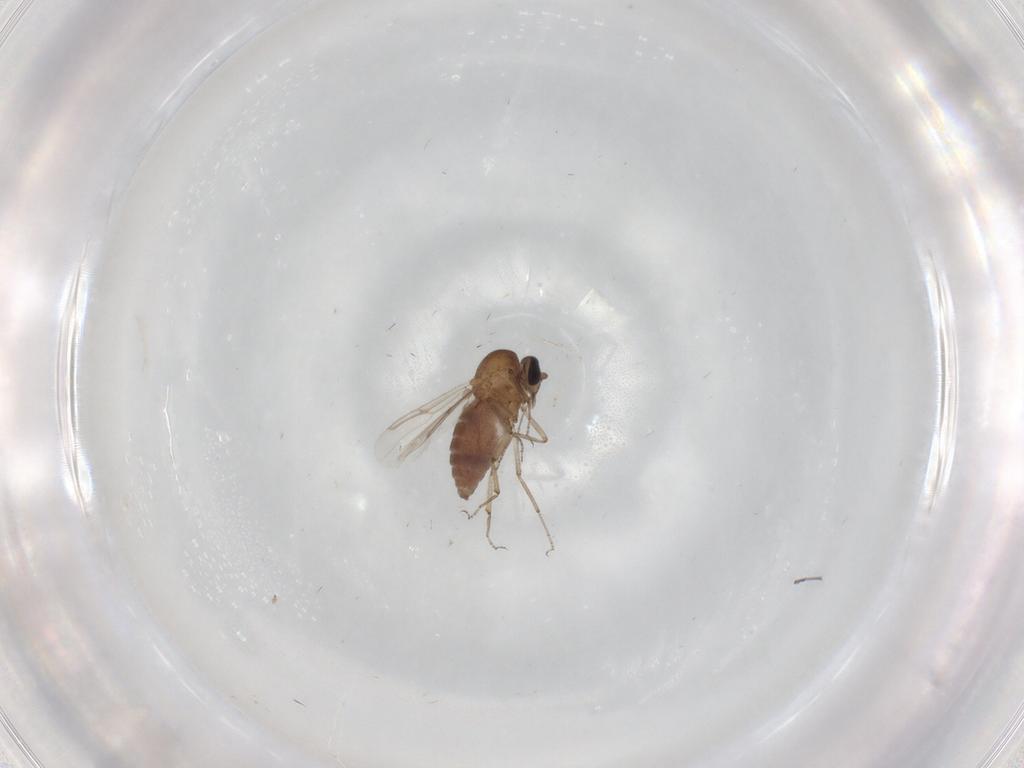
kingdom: Animalia
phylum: Arthropoda
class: Insecta
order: Diptera
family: Ceratopogonidae
